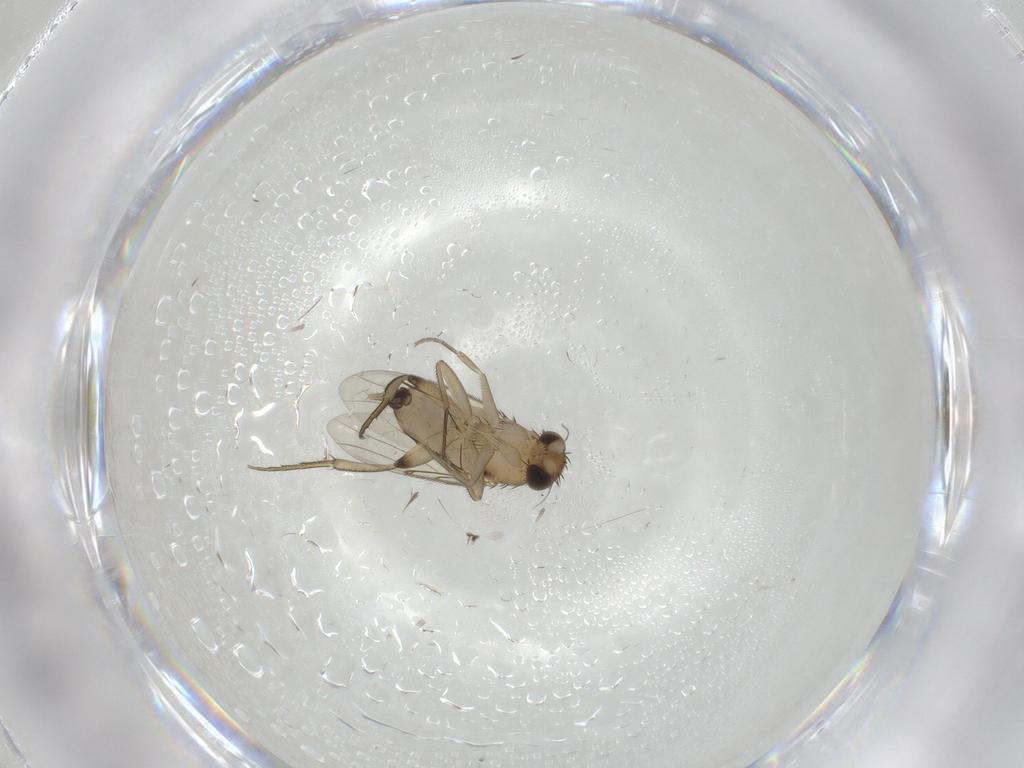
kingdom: Animalia
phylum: Arthropoda
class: Insecta
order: Diptera
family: Phoridae
